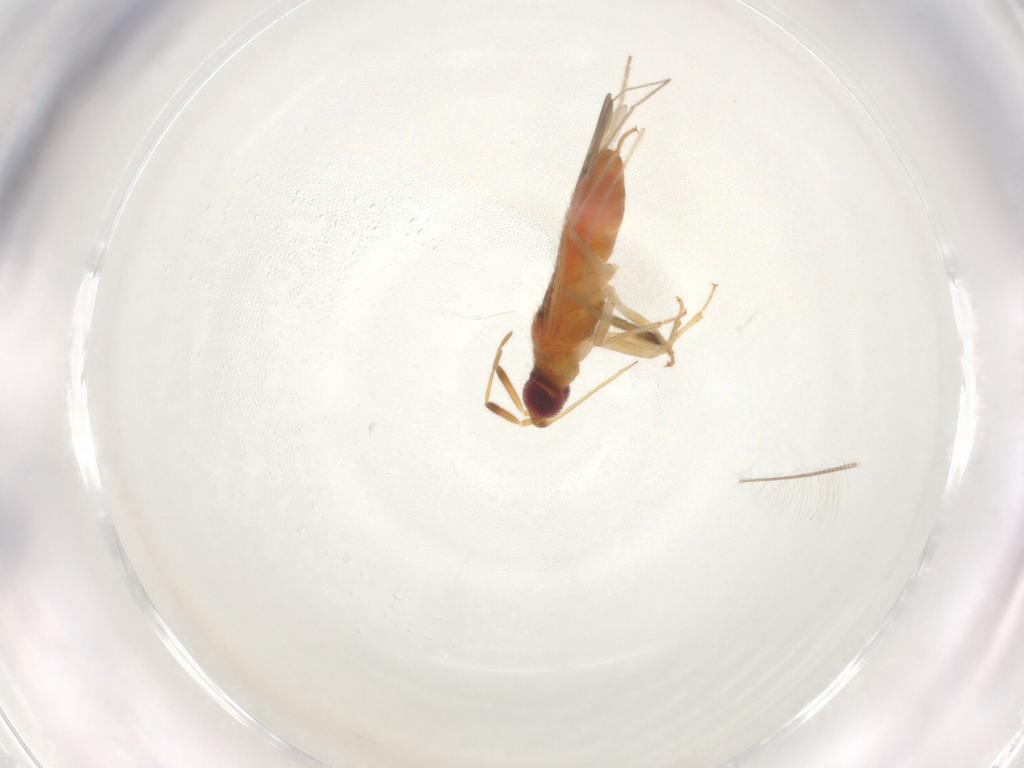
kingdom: Animalia
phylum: Arthropoda
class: Insecta
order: Hemiptera
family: Miridae
